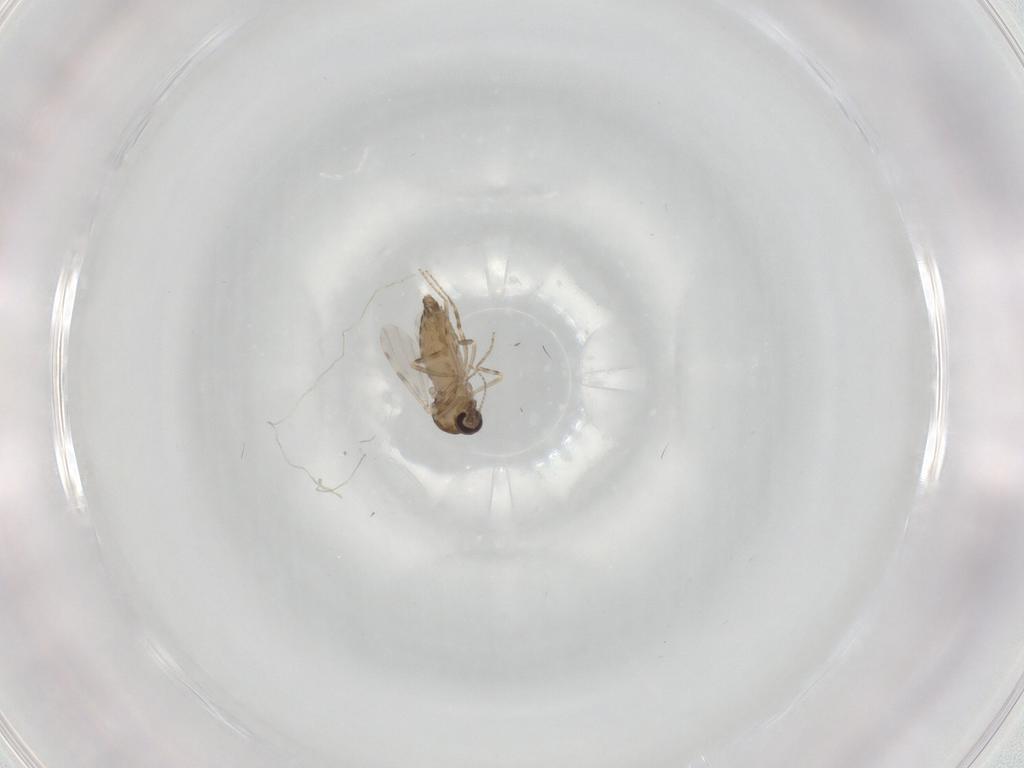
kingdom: Animalia
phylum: Arthropoda
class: Insecta
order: Diptera
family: Ceratopogonidae
